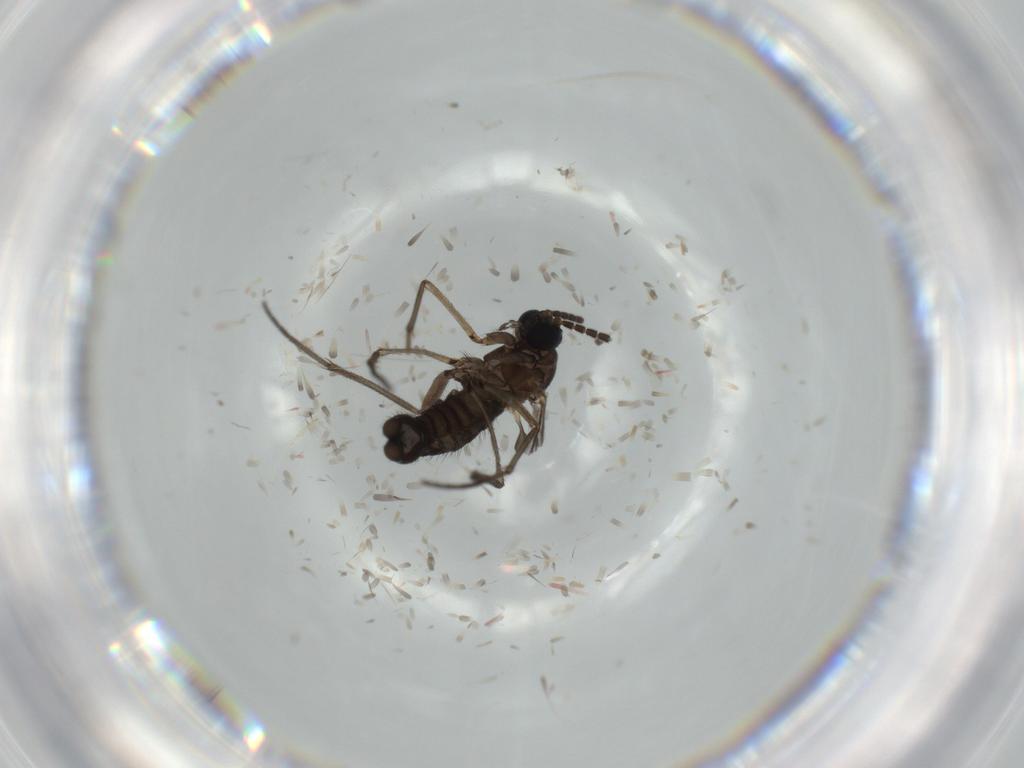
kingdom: Animalia
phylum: Arthropoda
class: Insecta
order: Diptera
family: Sciaridae
